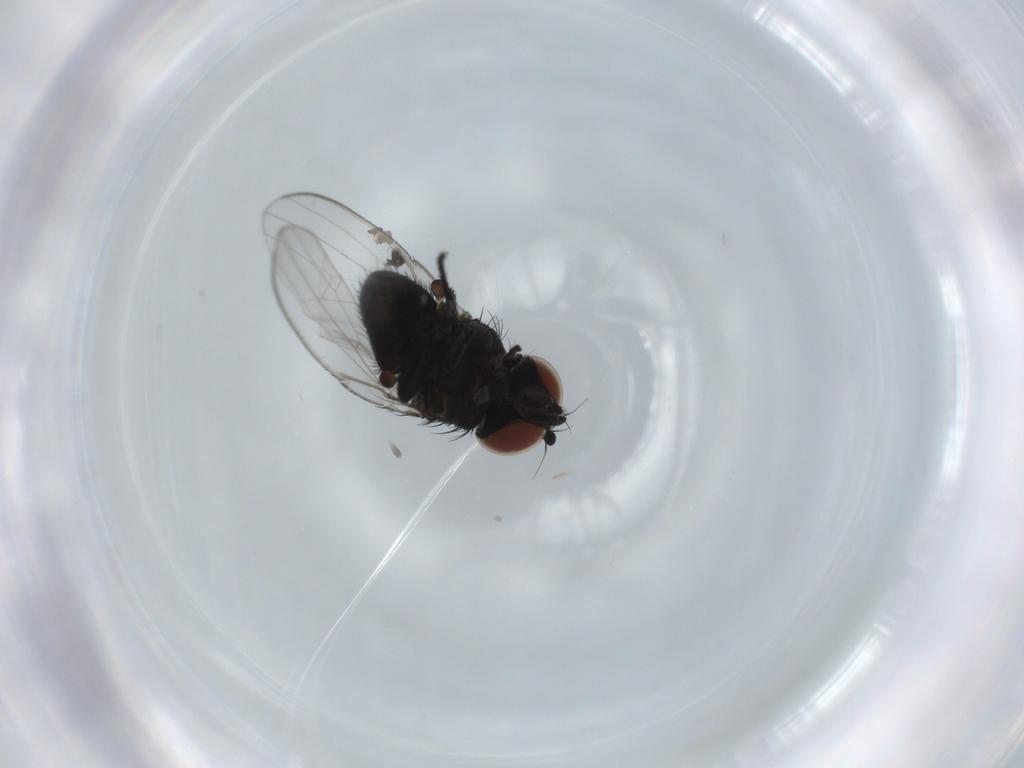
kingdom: Animalia
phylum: Arthropoda
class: Insecta
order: Diptera
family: Milichiidae
